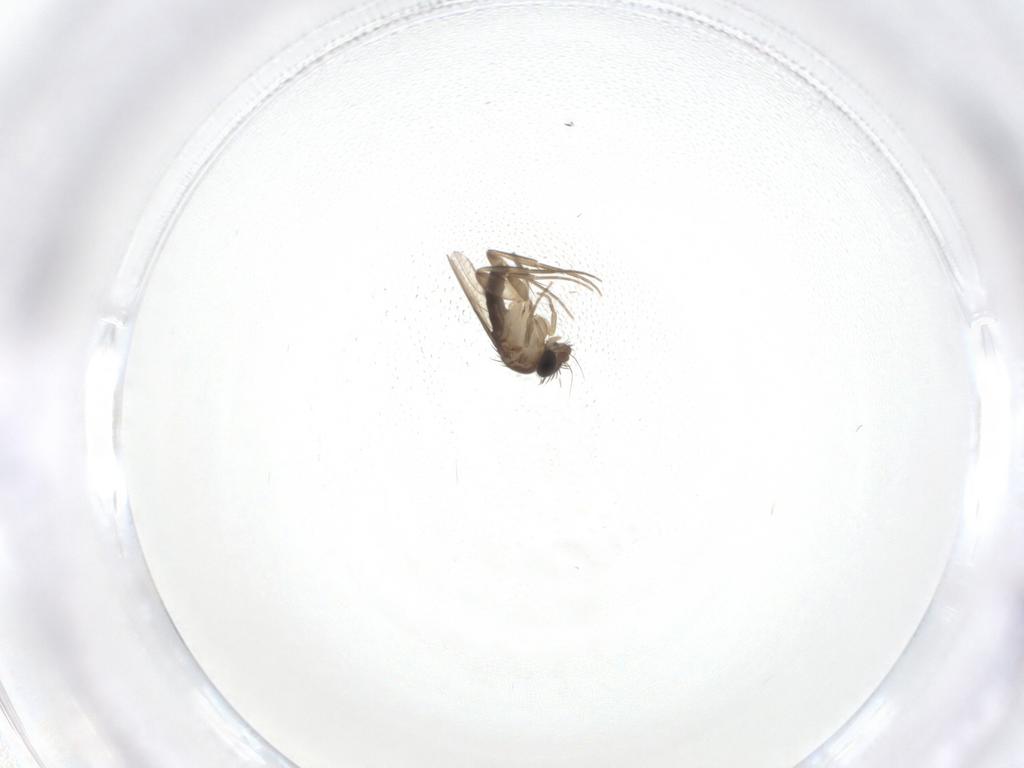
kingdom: Animalia
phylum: Arthropoda
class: Insecta
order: Diptera
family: Phoridae
